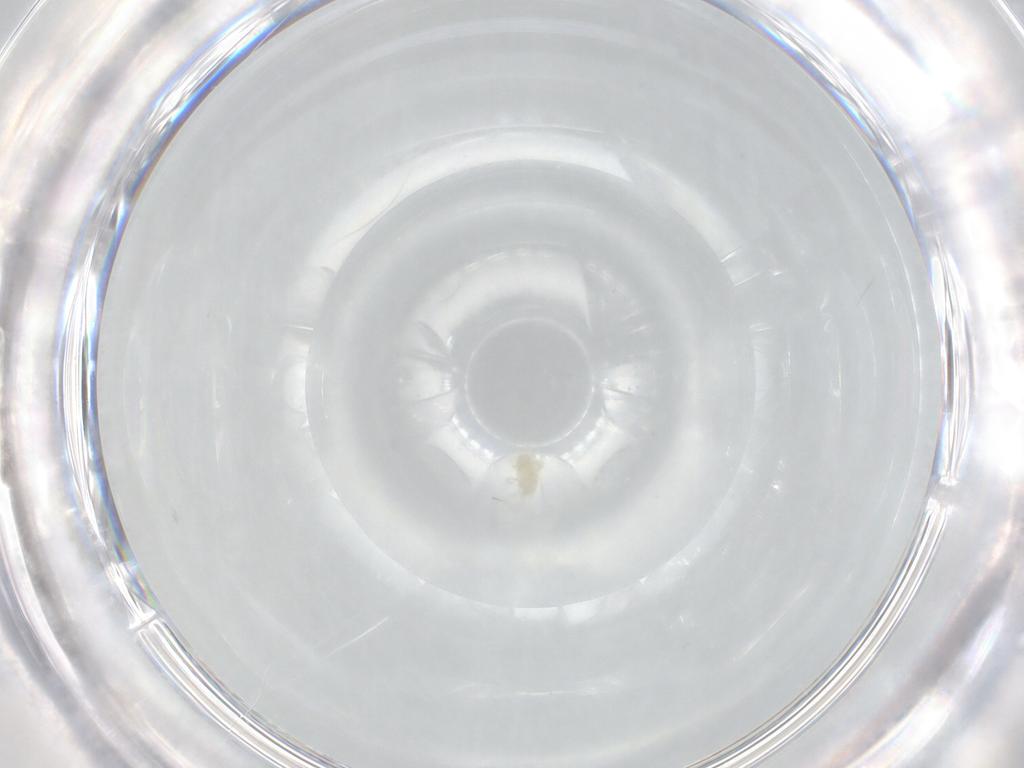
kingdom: Animalia
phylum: Arthropoda
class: Arachnida
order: Trombidiformes
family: Eupodidae
